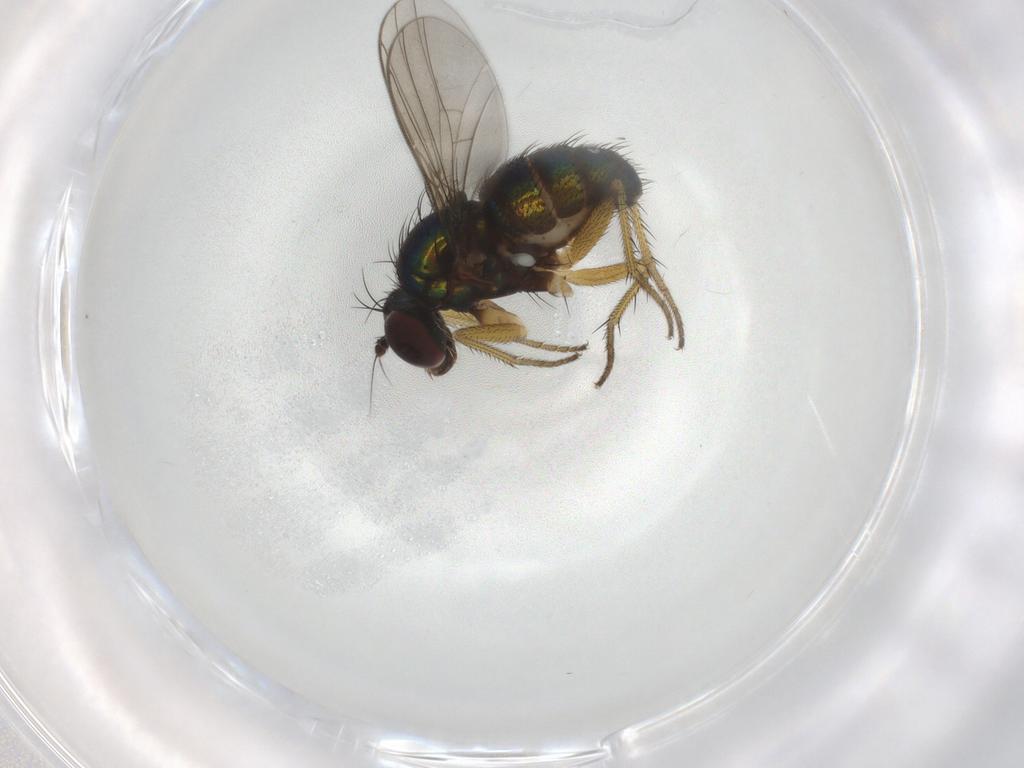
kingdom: Animalia
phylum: Arthropoda
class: Insecta
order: Diptera
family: Dolichopodidae
